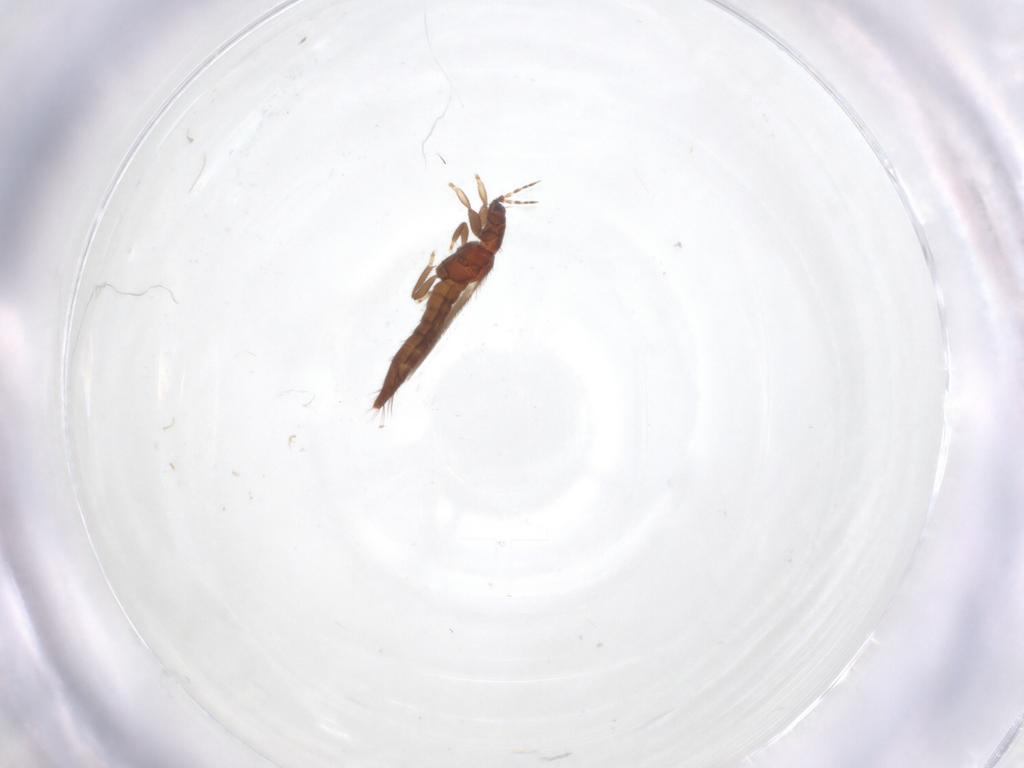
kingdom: Animalia
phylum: Arthropoda
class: Insecta
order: Thysanoptera
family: Thripidae
